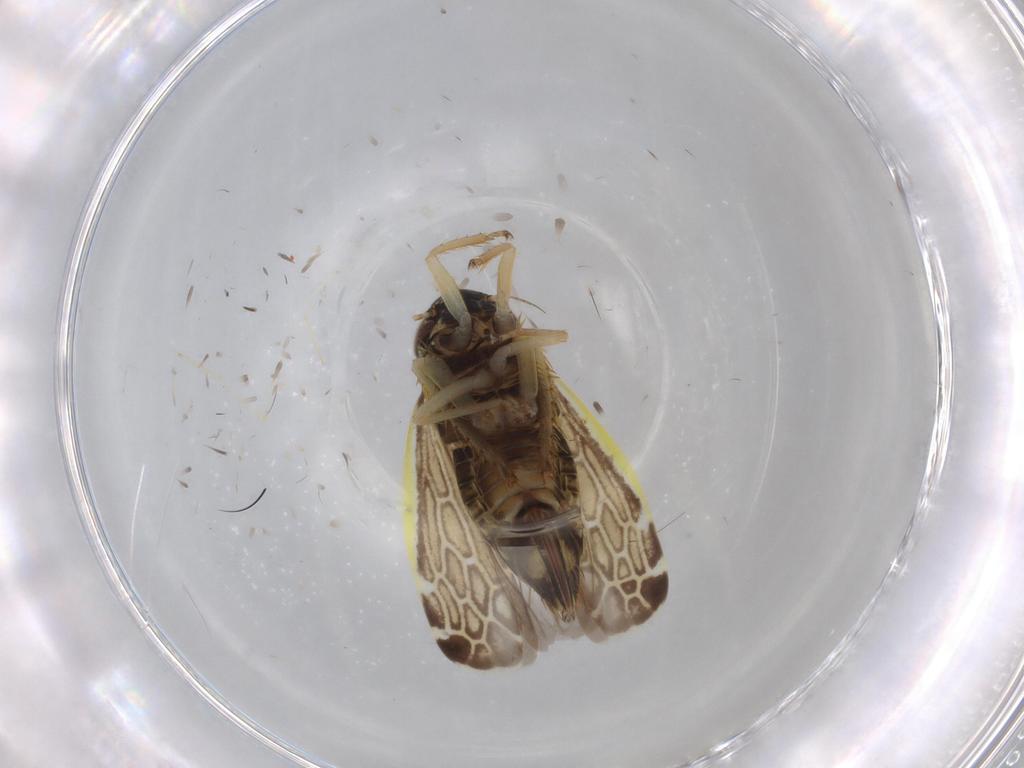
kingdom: Animalia
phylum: Arthropoda
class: Insecta
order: Hemiptera
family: Cicadellidae
